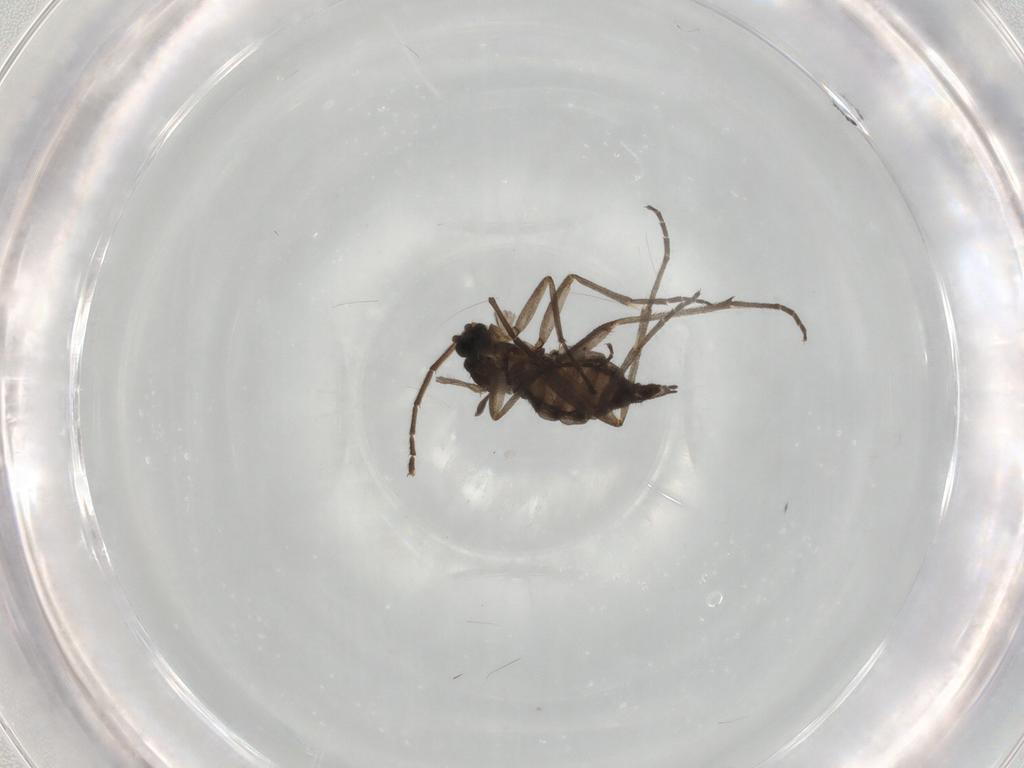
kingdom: Animalia
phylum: Arthropoda
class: Insecta
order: Diptera
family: Sciaridae
